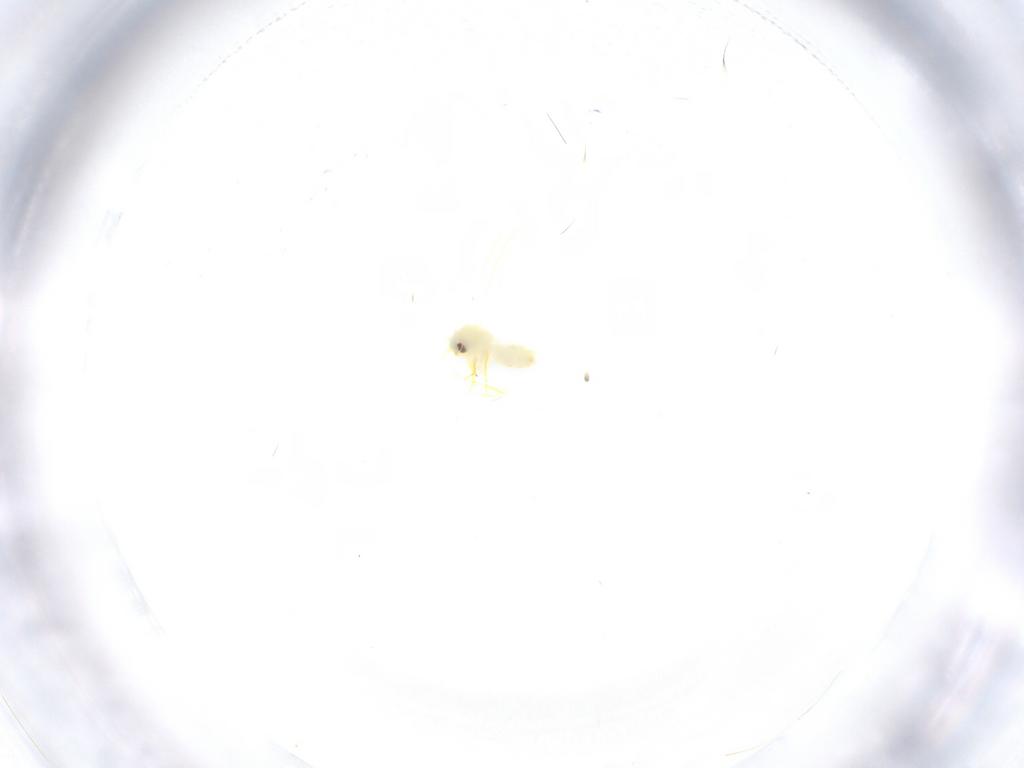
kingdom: Animalia
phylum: Arthropoda
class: Insecta
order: Hemiptera
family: Aleyrodidae
